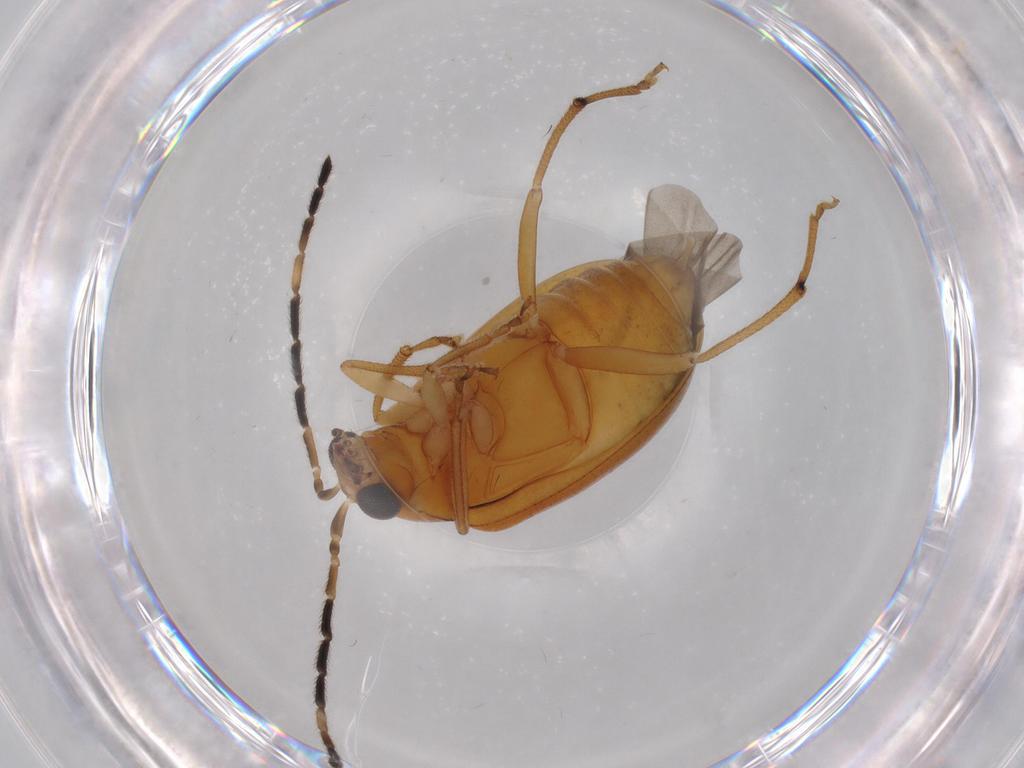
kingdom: Animalia
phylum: Arthropoda
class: Insecta
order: Coleoptera
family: Chrysomelidae
